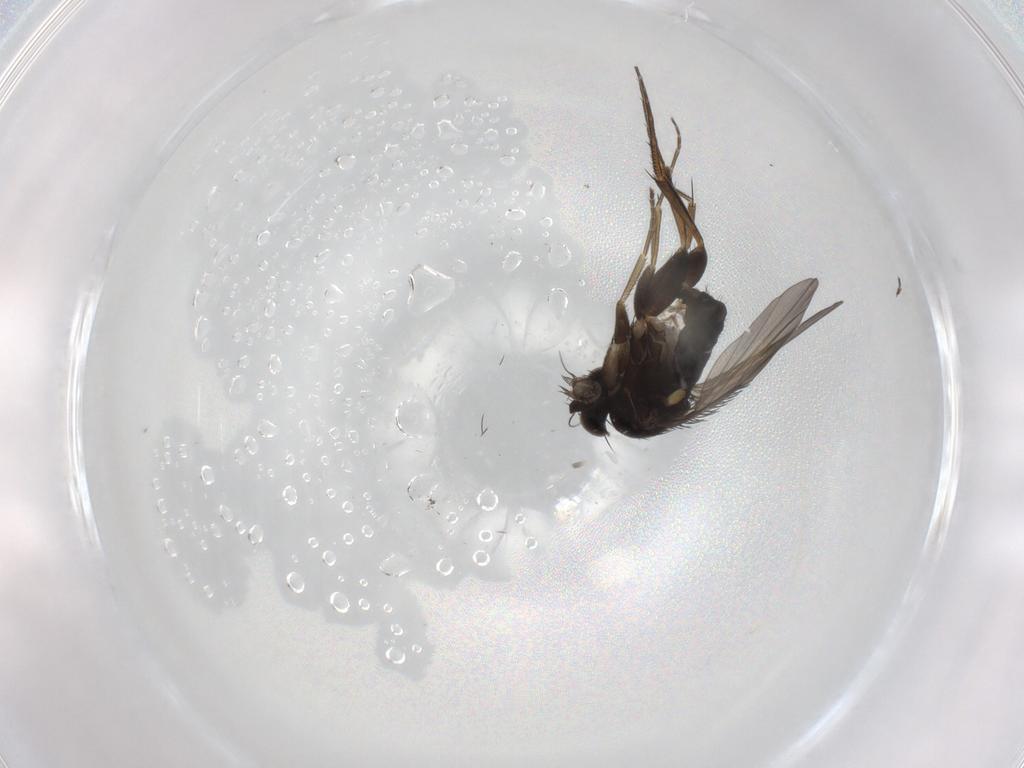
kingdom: Animalia
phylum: Arthropoda
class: Insecta
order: Diptera
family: Phoridae
